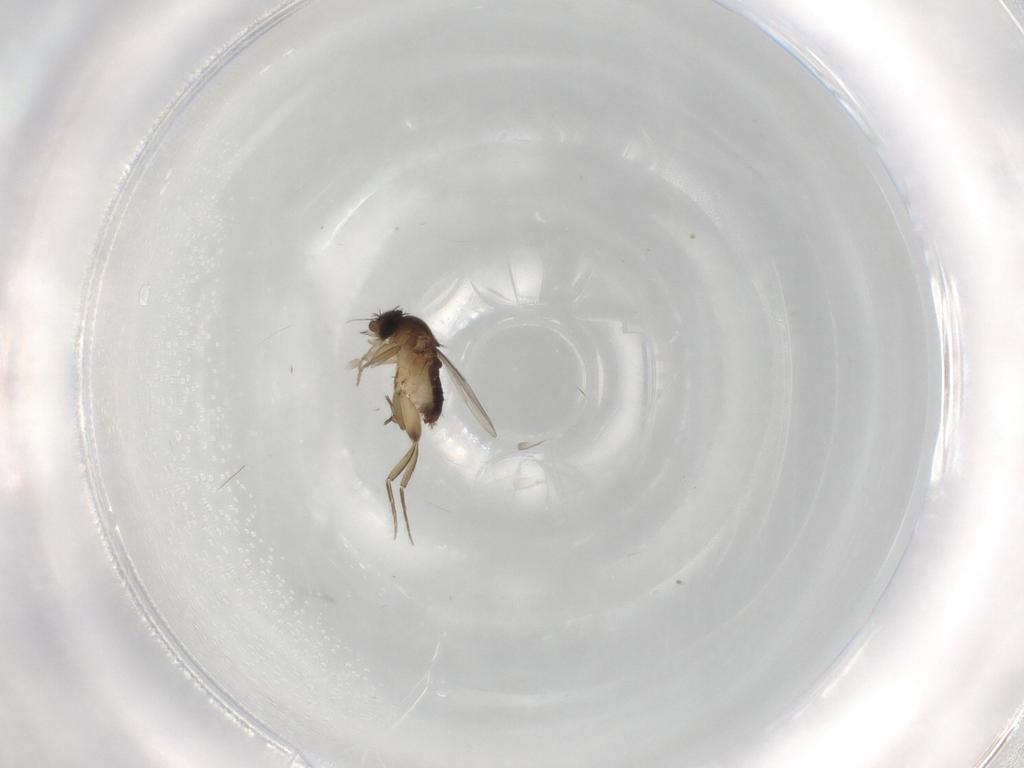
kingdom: Animalia
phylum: Arthropoda
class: Insecta
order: Diptera
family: Phoridae
